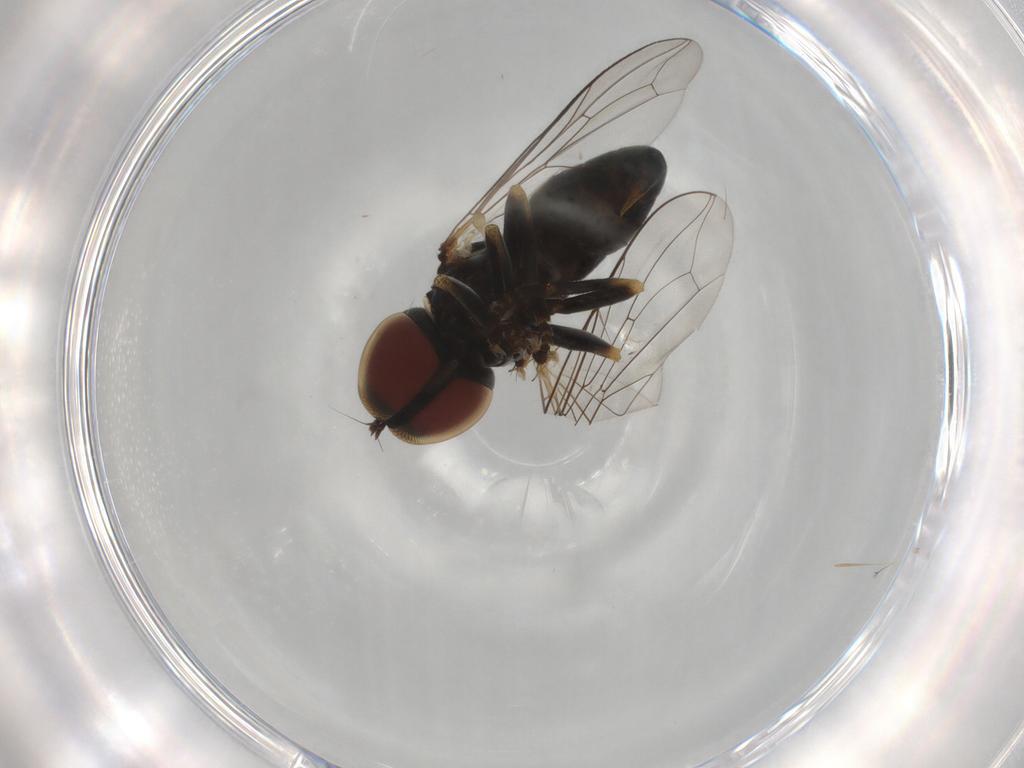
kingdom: Animalia
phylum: Arthropoda
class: Insecta
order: Diptera
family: Pipunculidae
